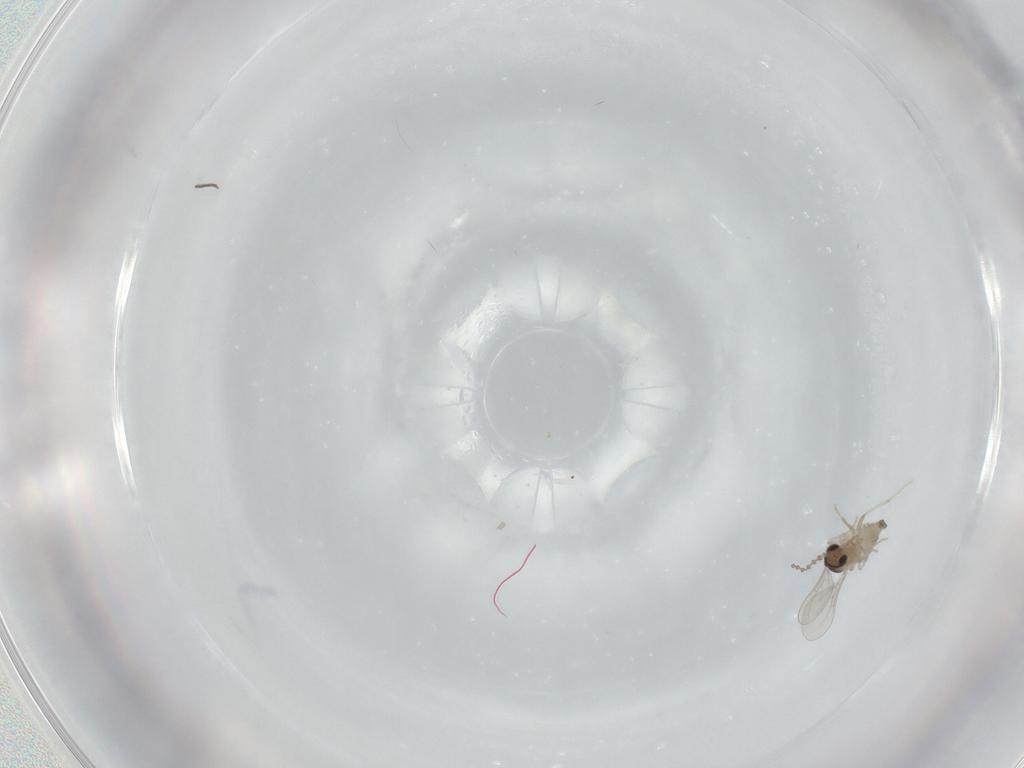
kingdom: Animalia
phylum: Arthropoda
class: Insecta
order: Diptera
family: Cecidomyiidae
